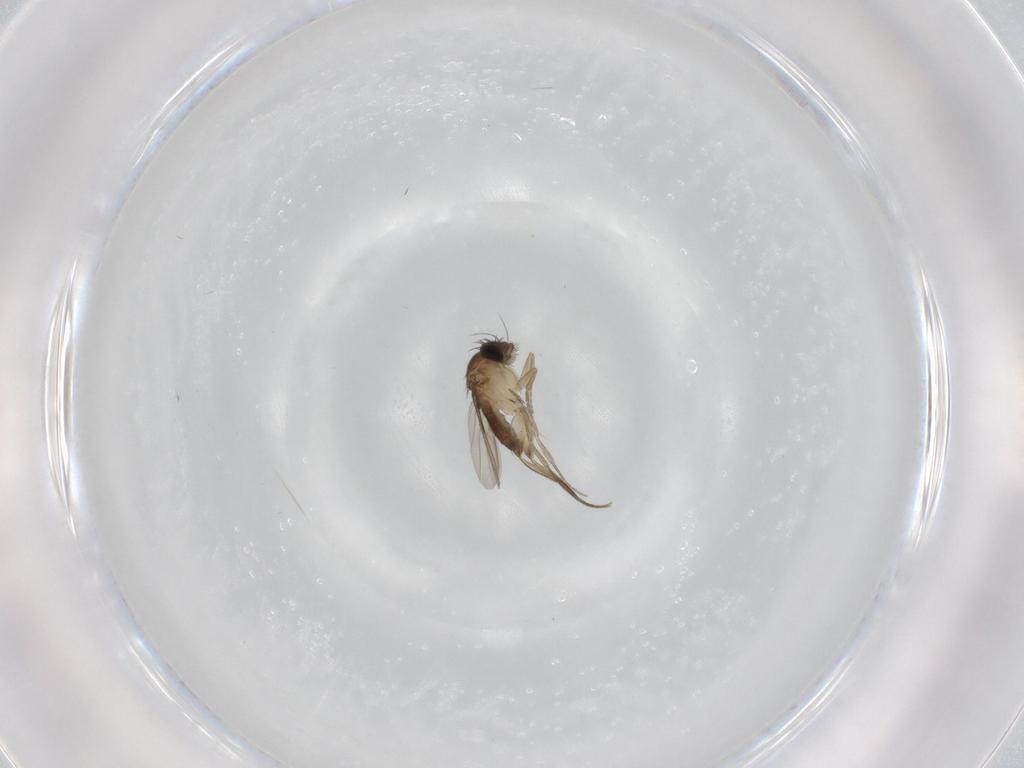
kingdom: Animalia
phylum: Arthropoda
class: Insecta
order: Diptera
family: Phoridae
